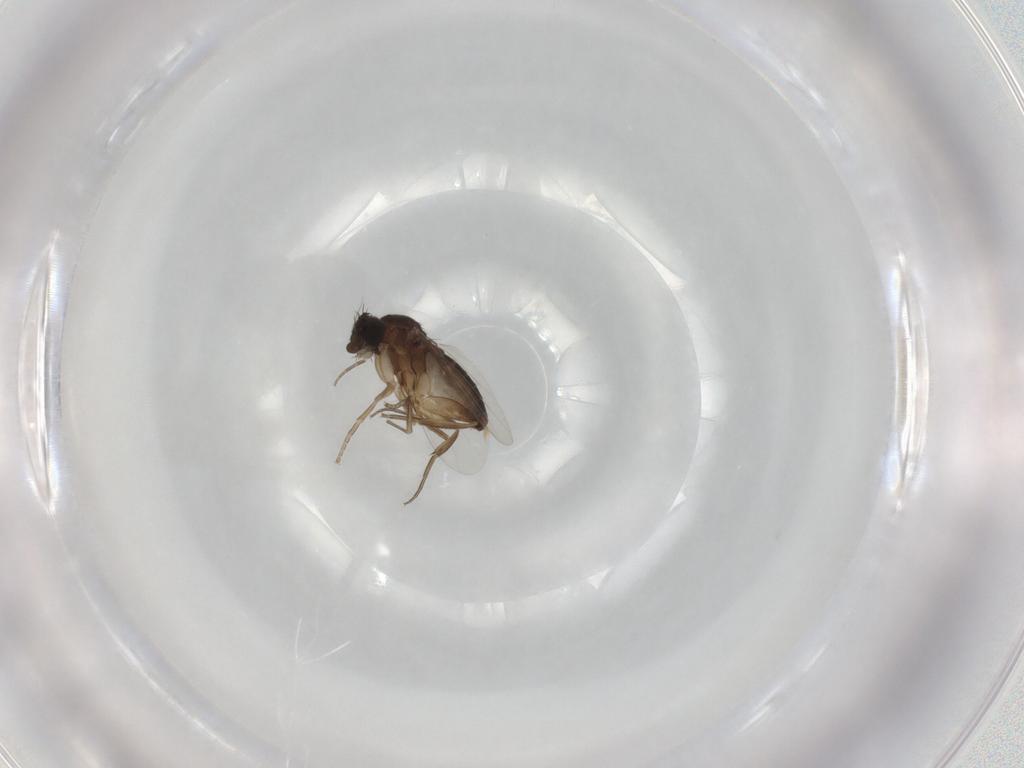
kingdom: Animalia
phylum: Arthropoda
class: Insecta
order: Diptera
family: Phoridae
